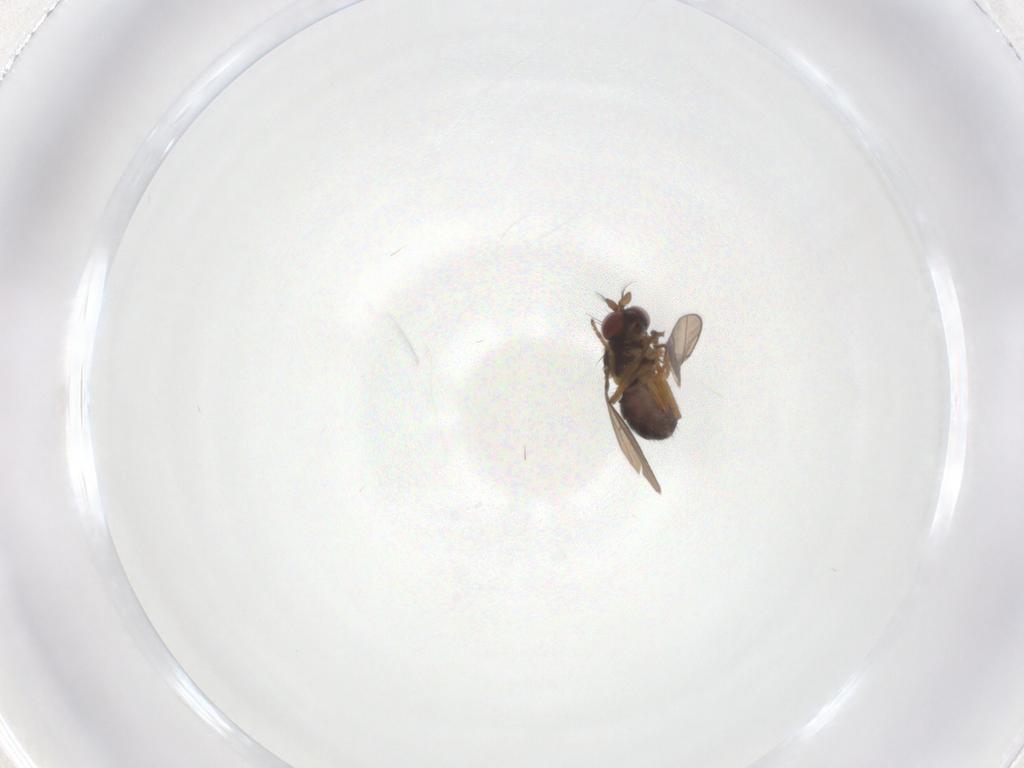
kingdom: Animalia
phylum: Arthropoda
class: Insecta
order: Diptera
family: Ephydridae
